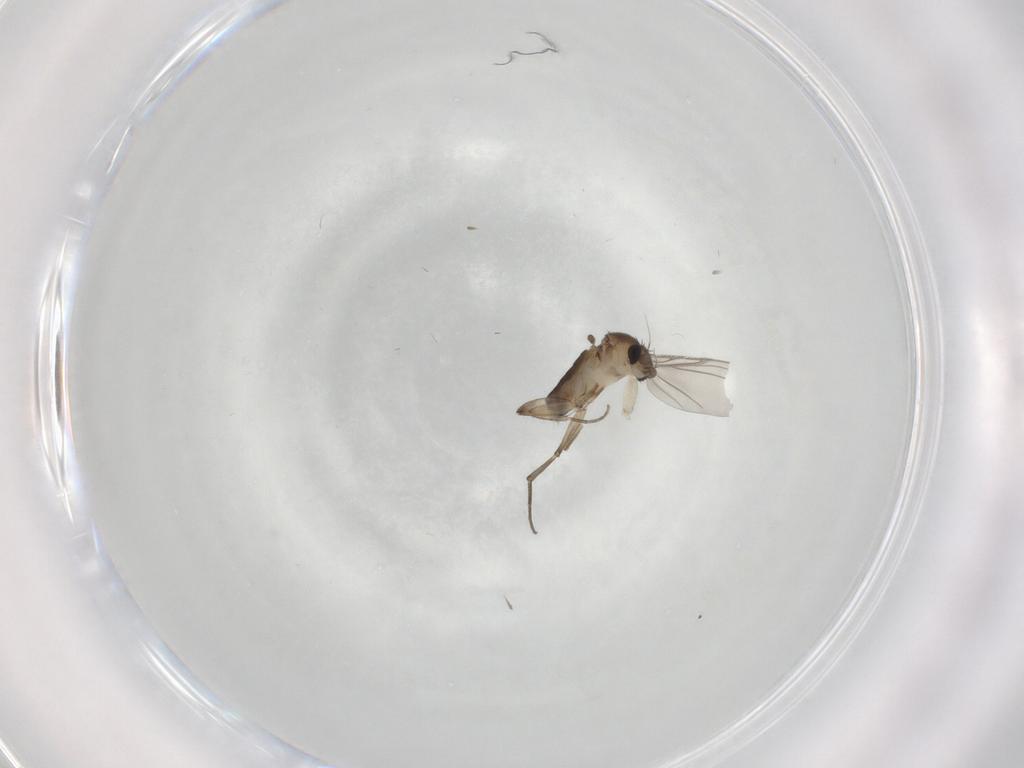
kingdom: Animalia
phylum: Arthropoda
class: Insecta
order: Diptera
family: Phoridae
